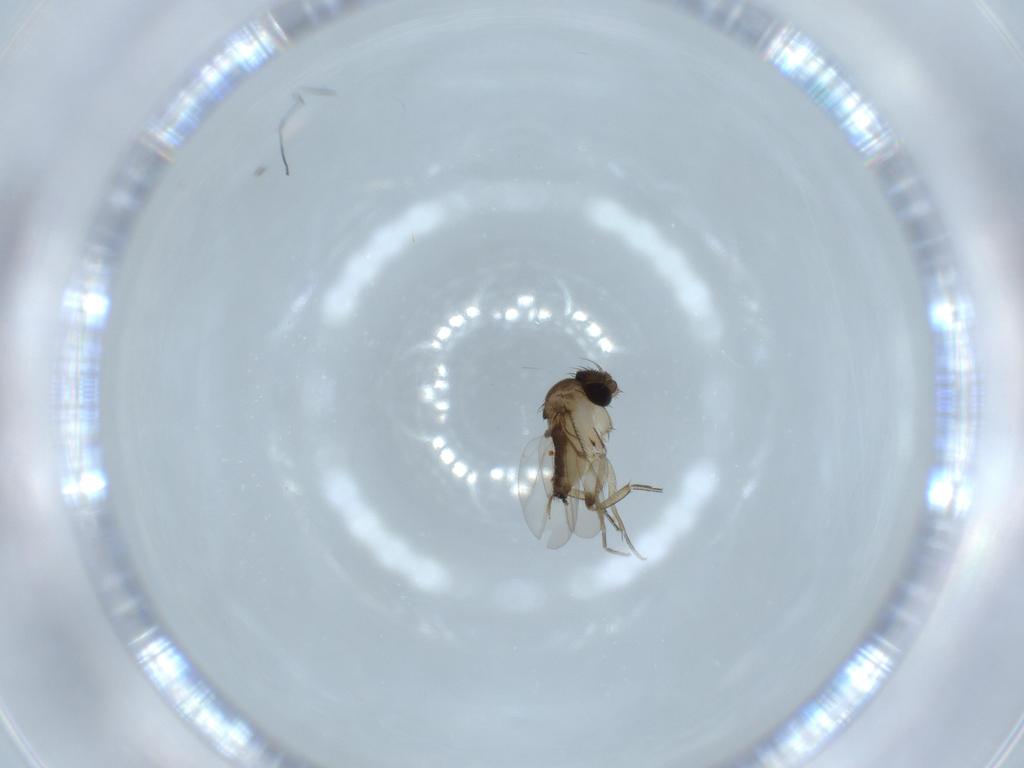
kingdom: Animalia
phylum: Arthropoda
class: Insecta
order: Diptera
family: Phoridae
